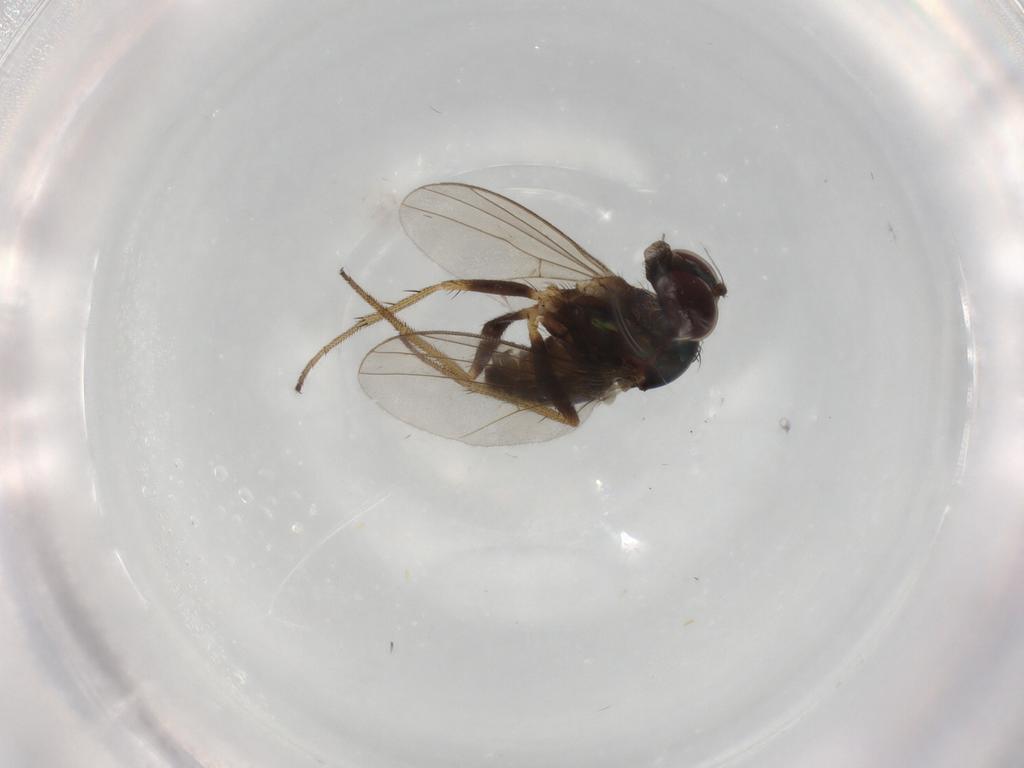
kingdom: Animalia
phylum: Arthropoda
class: Insecta
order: Diptera
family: Dolichopodidae
